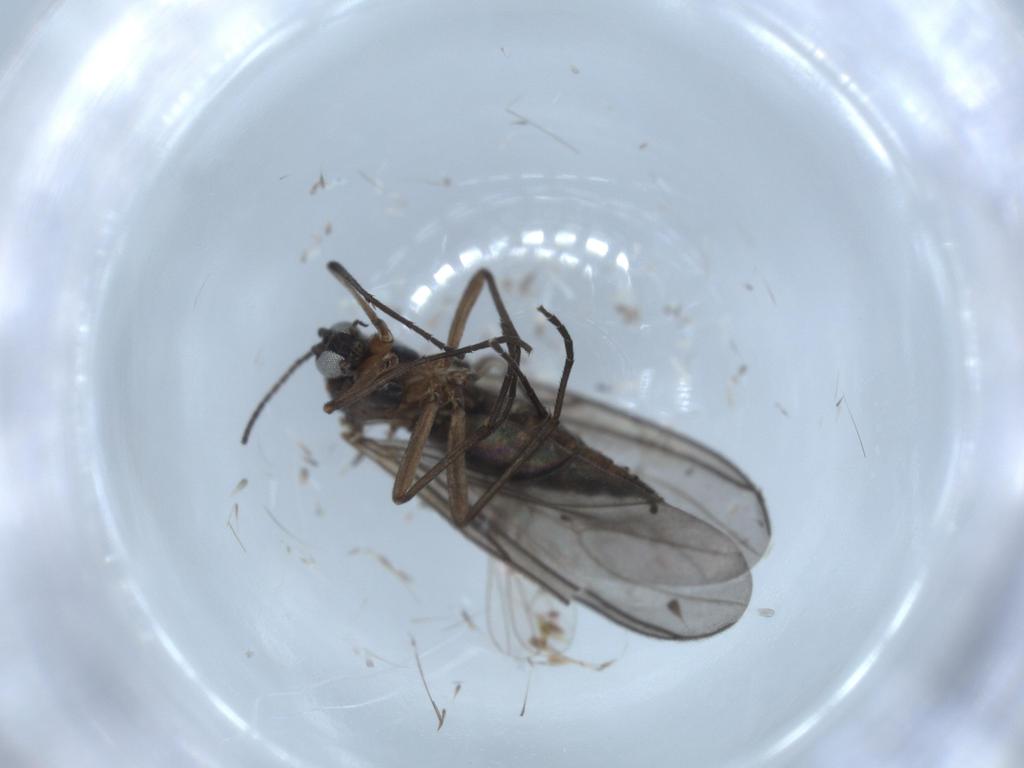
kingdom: Animalia
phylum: Arthropoda
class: Insecta
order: Diptera
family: Sciaridae
